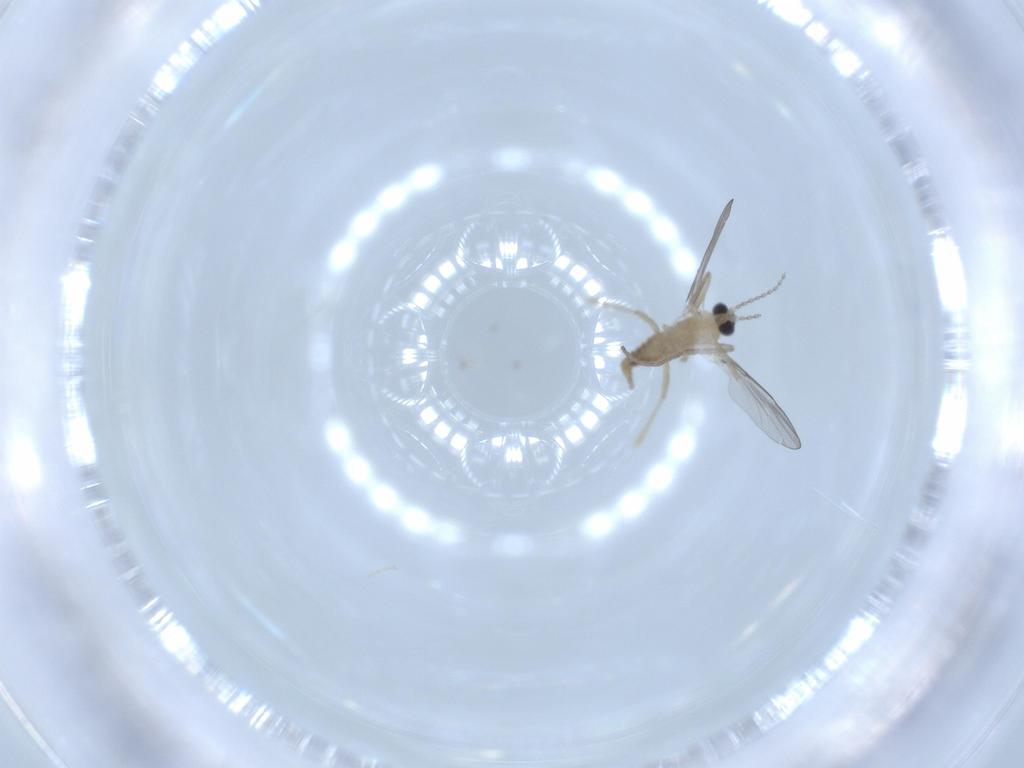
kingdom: Animalia
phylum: Arthropoda
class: Insecta
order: Diptera
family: Cecidomyiidae
